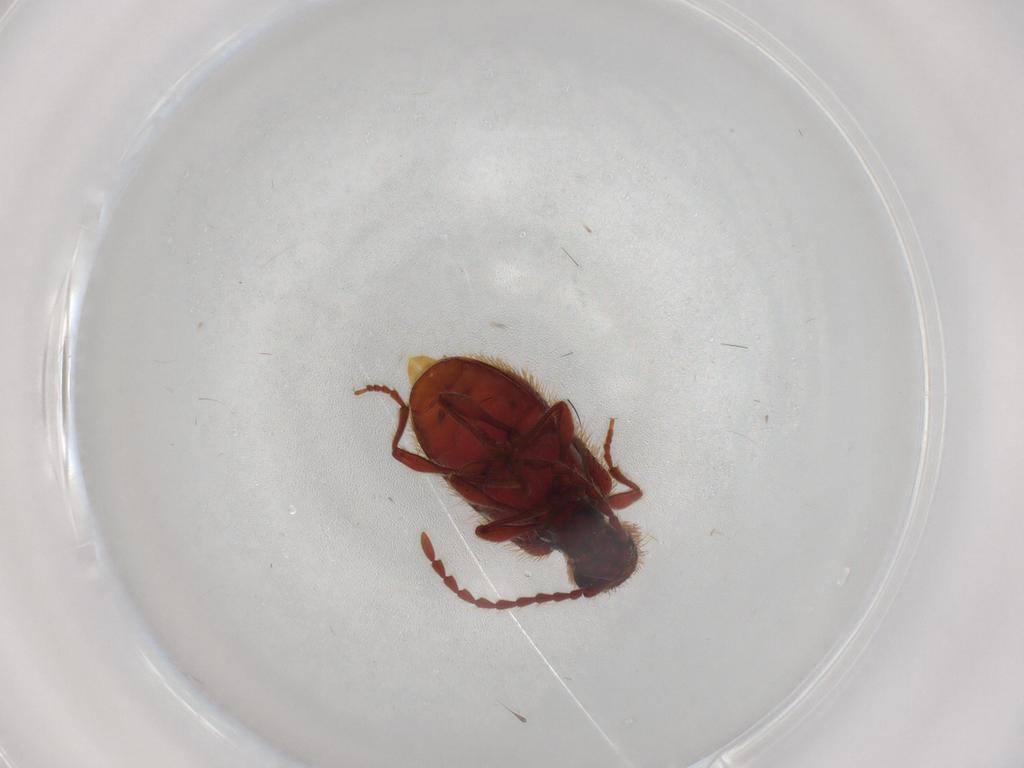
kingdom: Animalia
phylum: Arthropoda
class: Insecta
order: Coleoptera
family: Ptinidae
